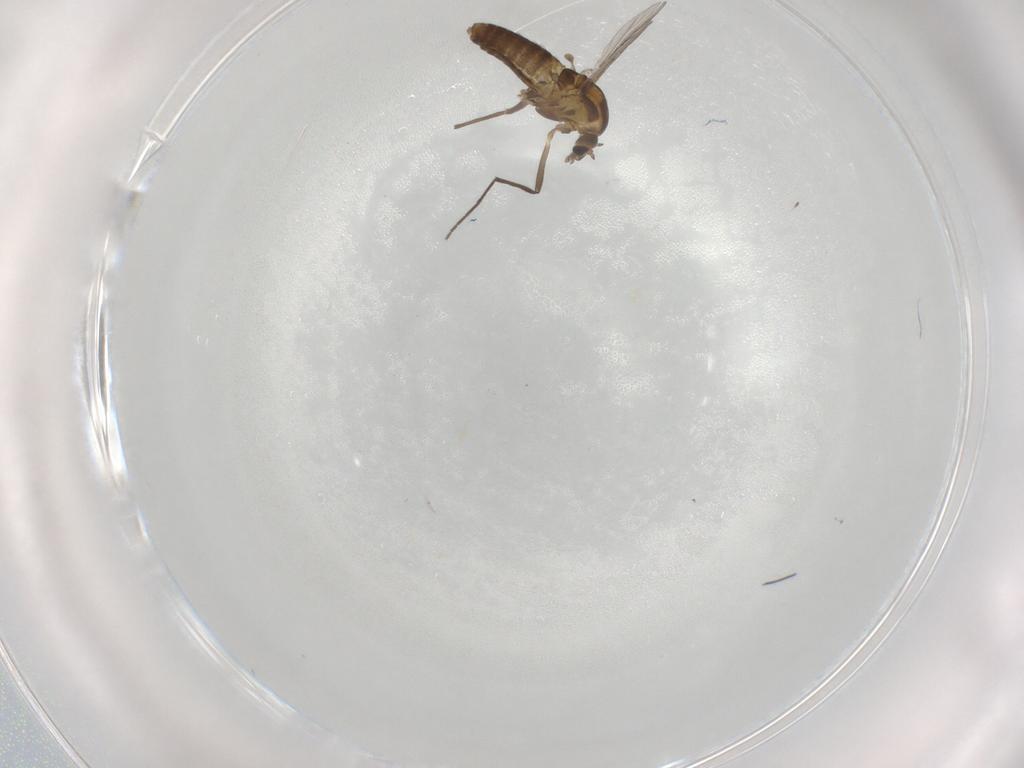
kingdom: Animalia
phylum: Arthropoda
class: Insecta
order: Diptera
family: Chironomidae
